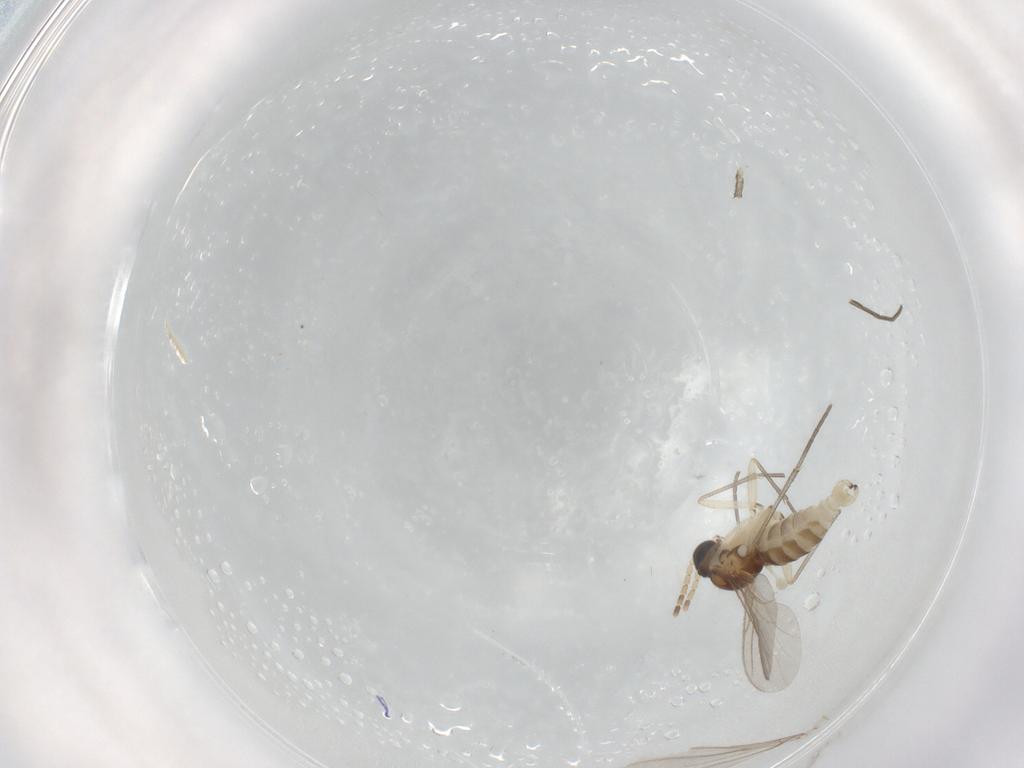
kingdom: Animalia
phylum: Arthropoda
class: Insecta
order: Diptera
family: Sciaridae
